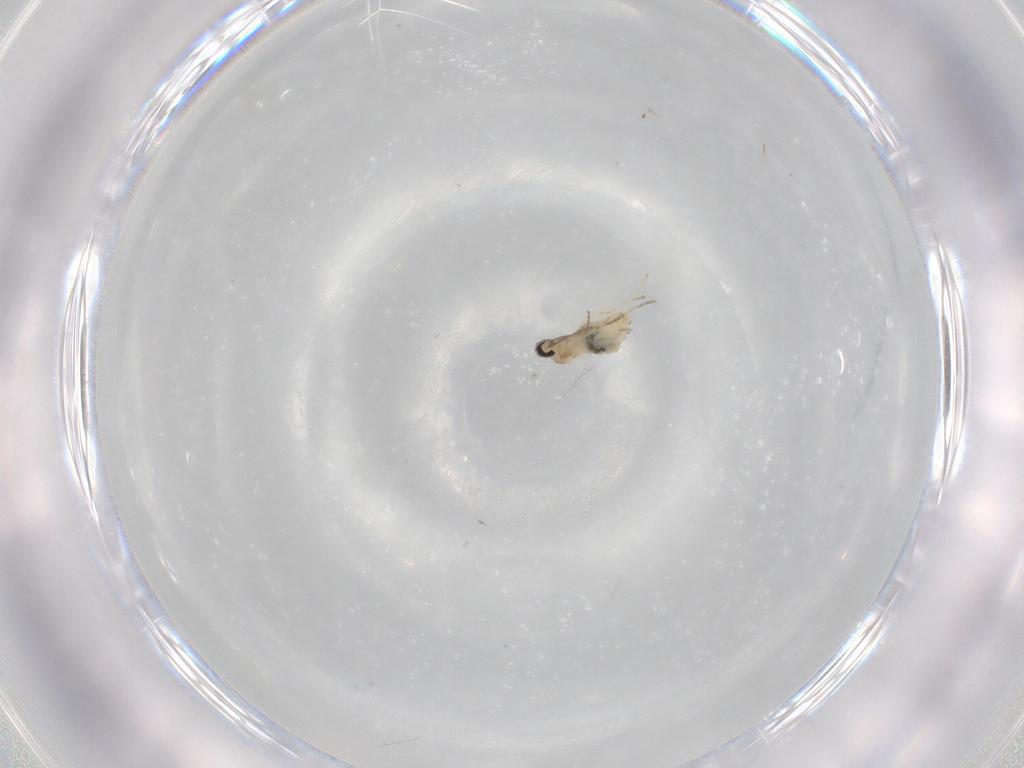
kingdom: Animalia
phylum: Arthropoda
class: Insecta
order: Diptera
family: Cecidomyiidae
